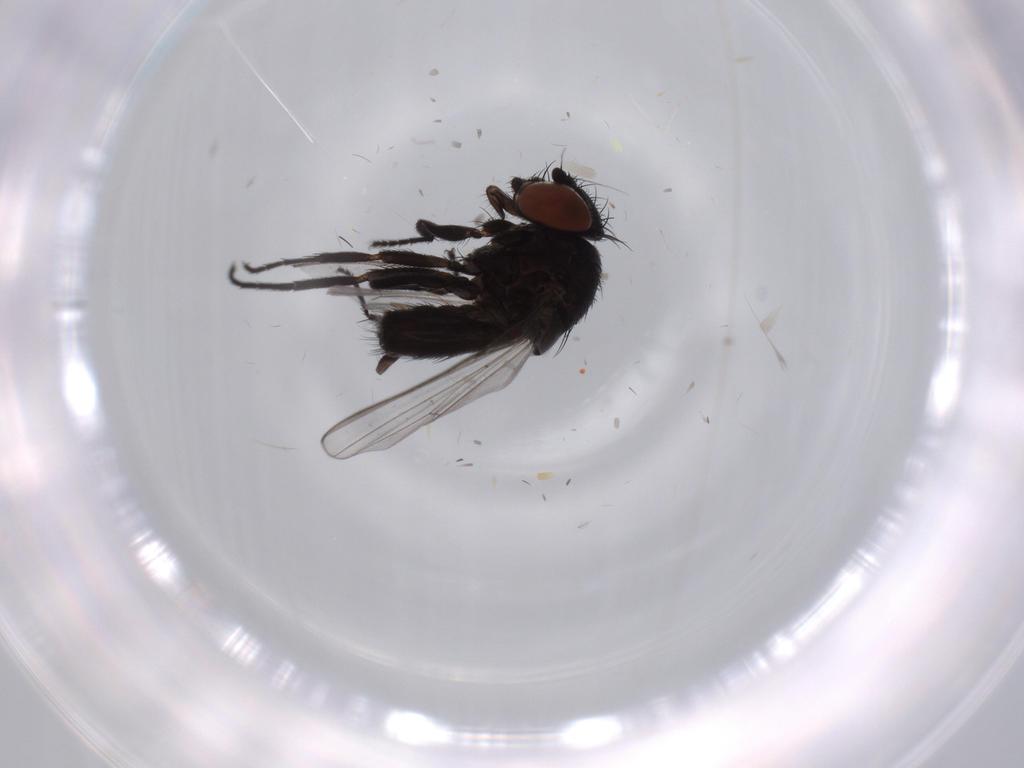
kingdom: Animalia
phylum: Arthropoda
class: Insecta
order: Diptera
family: Milichiidae
